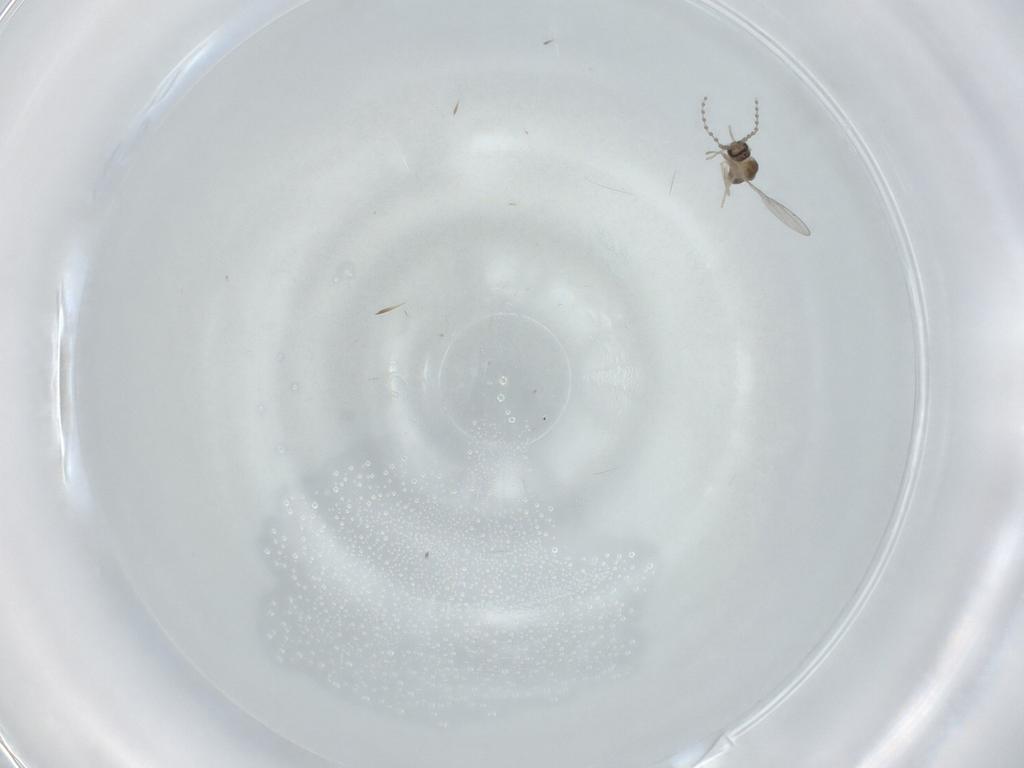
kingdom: Animalia
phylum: Arthropoda
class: Insecta
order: Diptera
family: Cecidomyiidae
